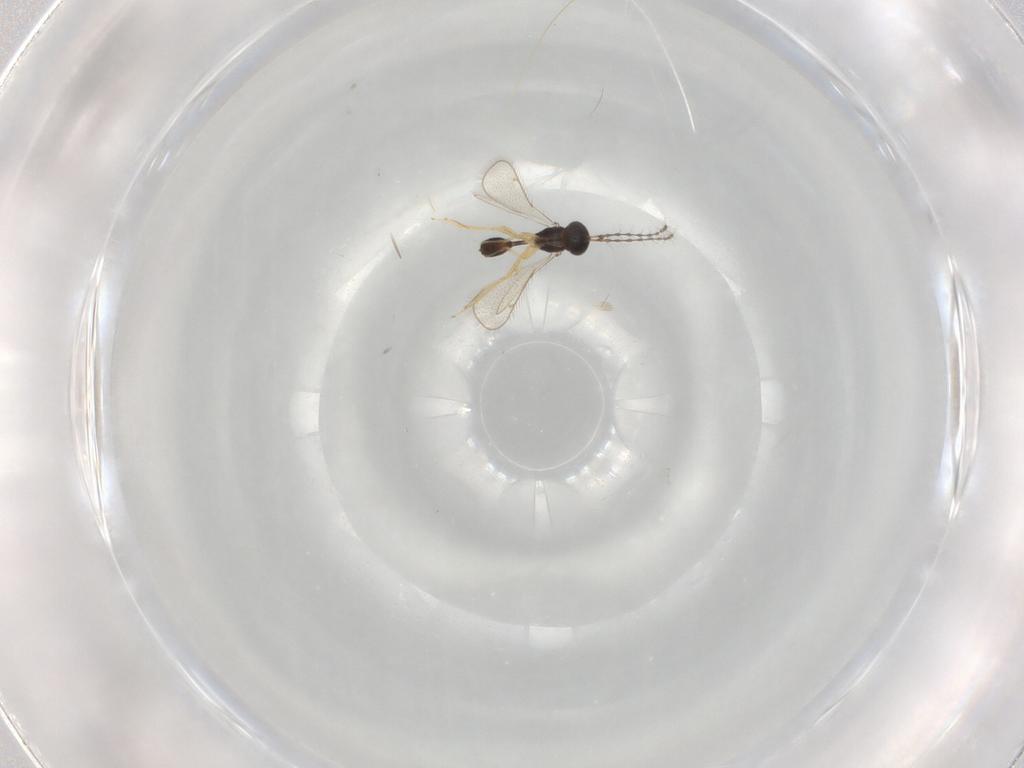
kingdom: Animalia
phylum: Arthropoda
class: Insecta
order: Hymenoptera
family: Pteromalidae
